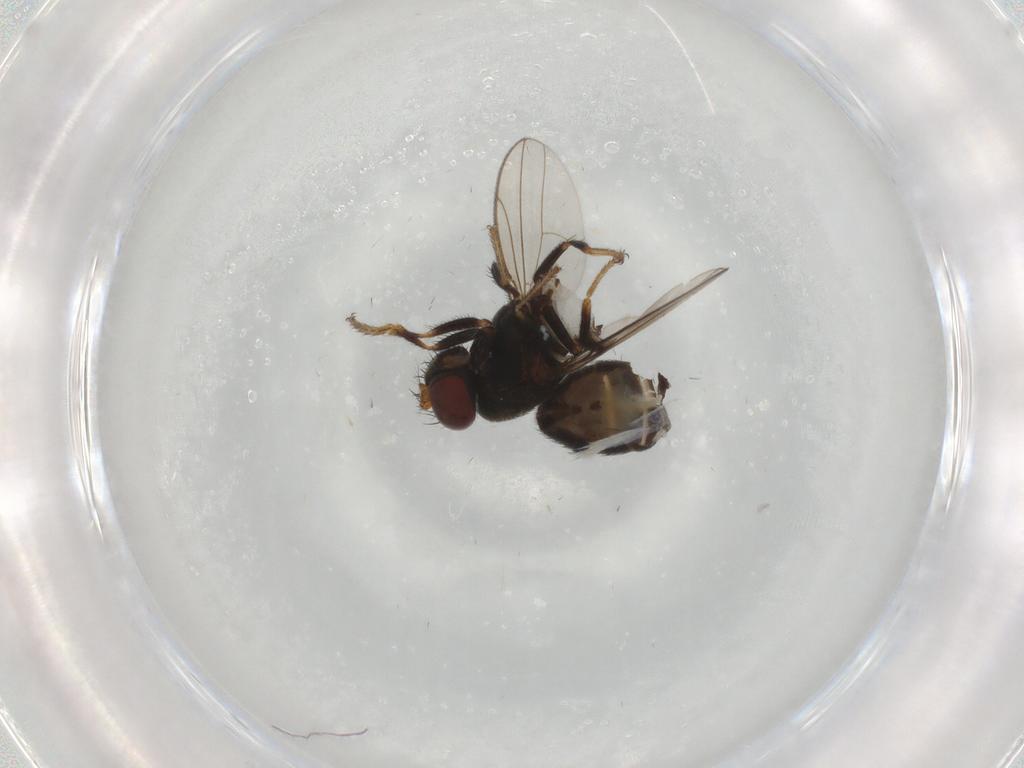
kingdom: Animalia
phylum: Arthropoda
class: Insecta
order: Diptera
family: Ephydridae
